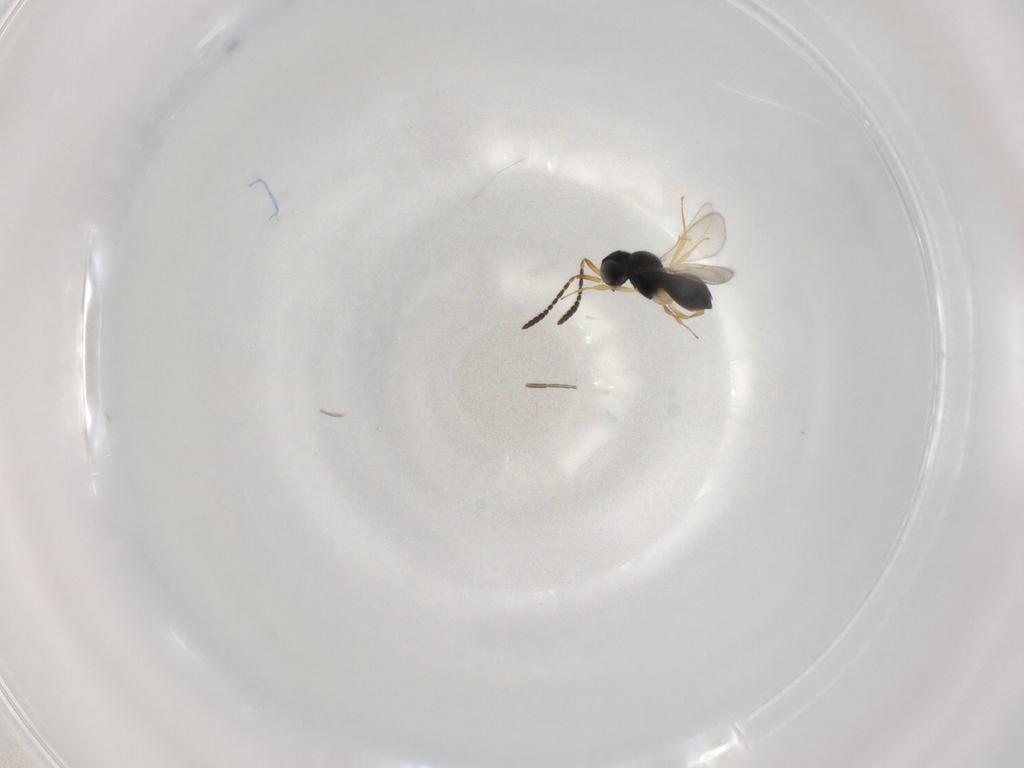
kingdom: Animalia
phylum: Arthropoda
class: Insecta
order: Hymenoptera
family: Scelionidae
